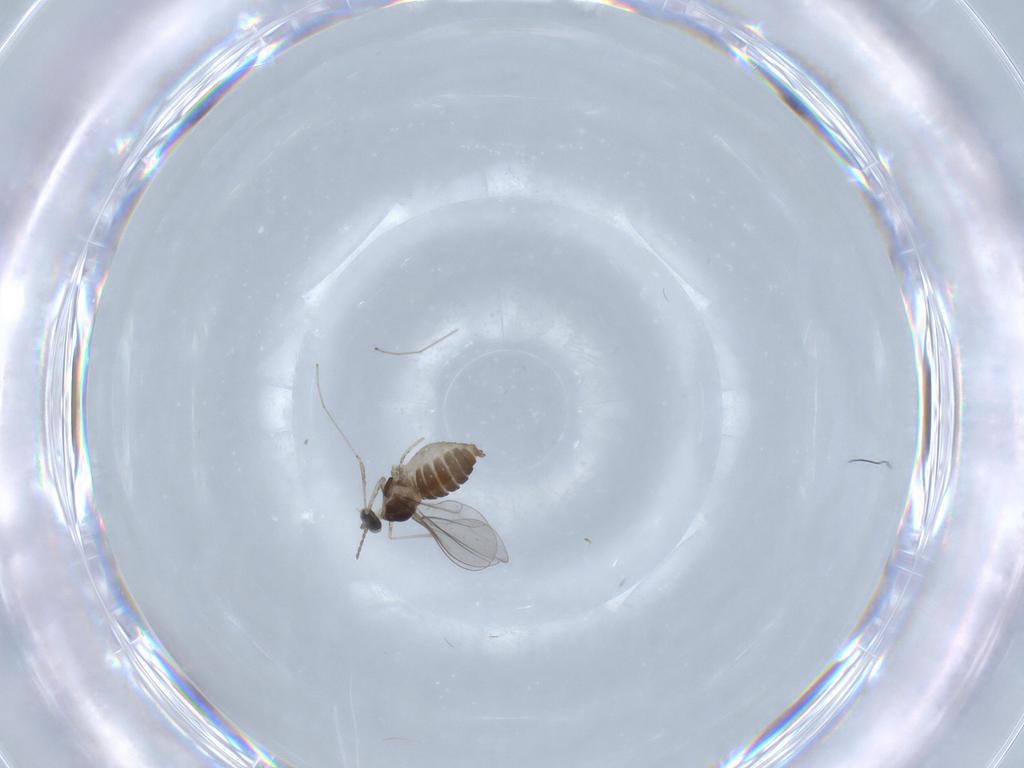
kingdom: Animalia
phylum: Arthropoda
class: Insecta
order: Diptera
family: Cecidomyiidae
